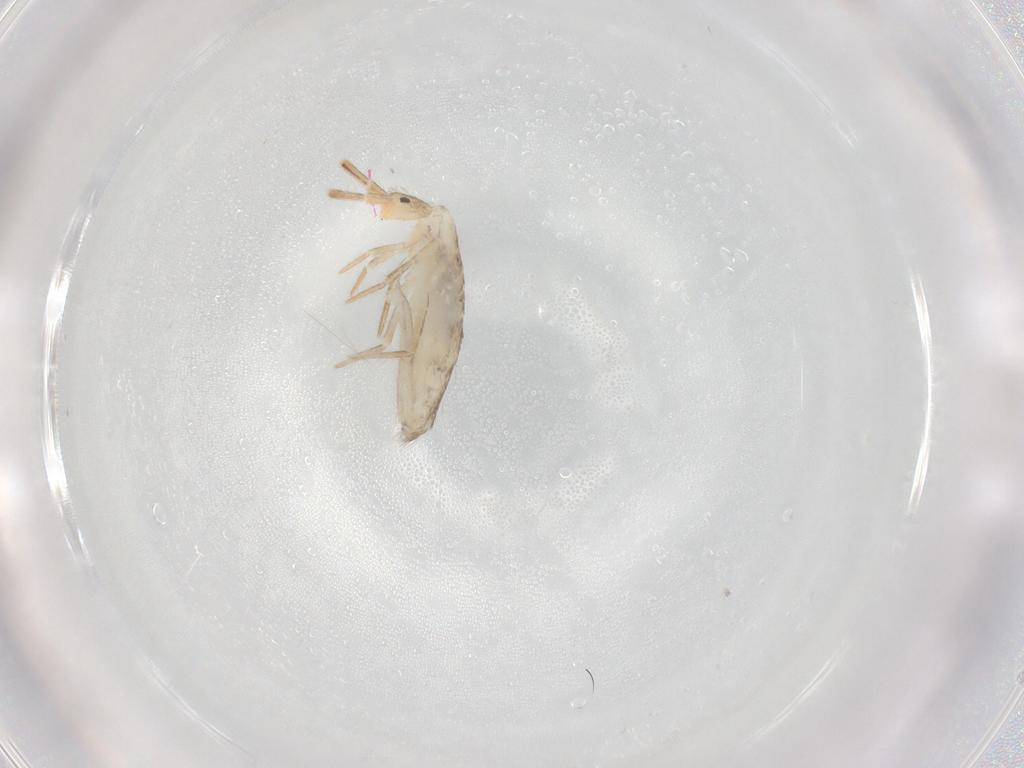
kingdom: Animalia
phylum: Arthropoda
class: Collembola
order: Entomobryomorpha
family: Entomobryidae
